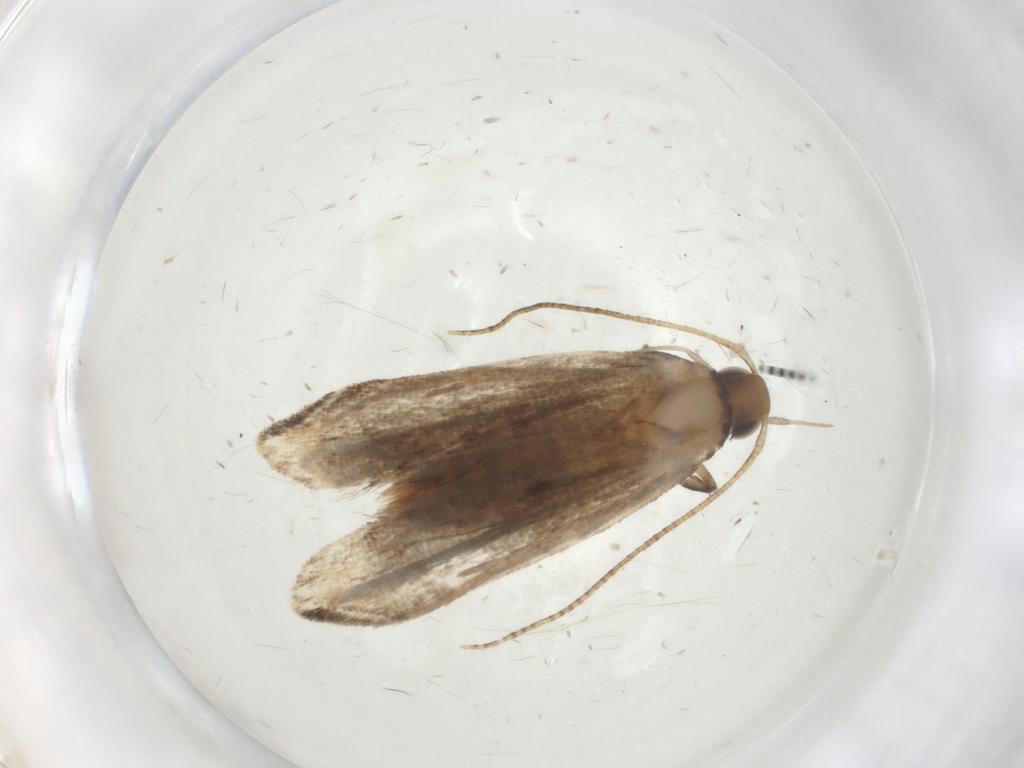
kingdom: Animalia
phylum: Arthropoda
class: Insecta
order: Lepidoptera
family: Gelechiidae
